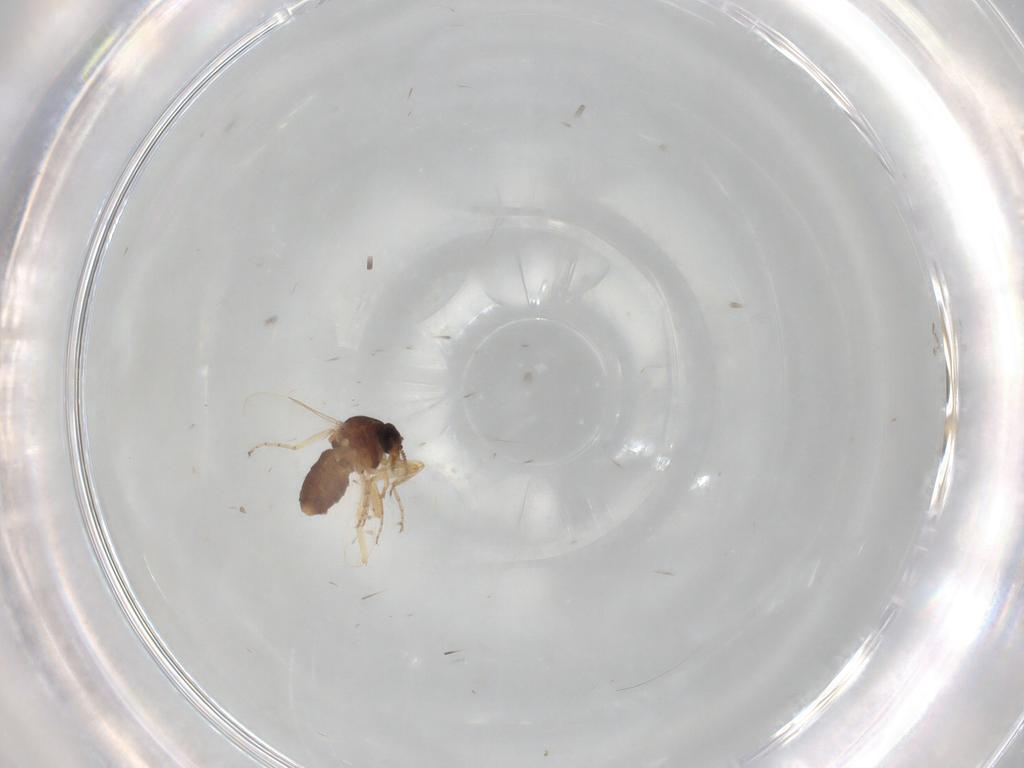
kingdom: Animalia
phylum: Arthropoda
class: Insecta
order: Diptera
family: Ceratopogonidae
